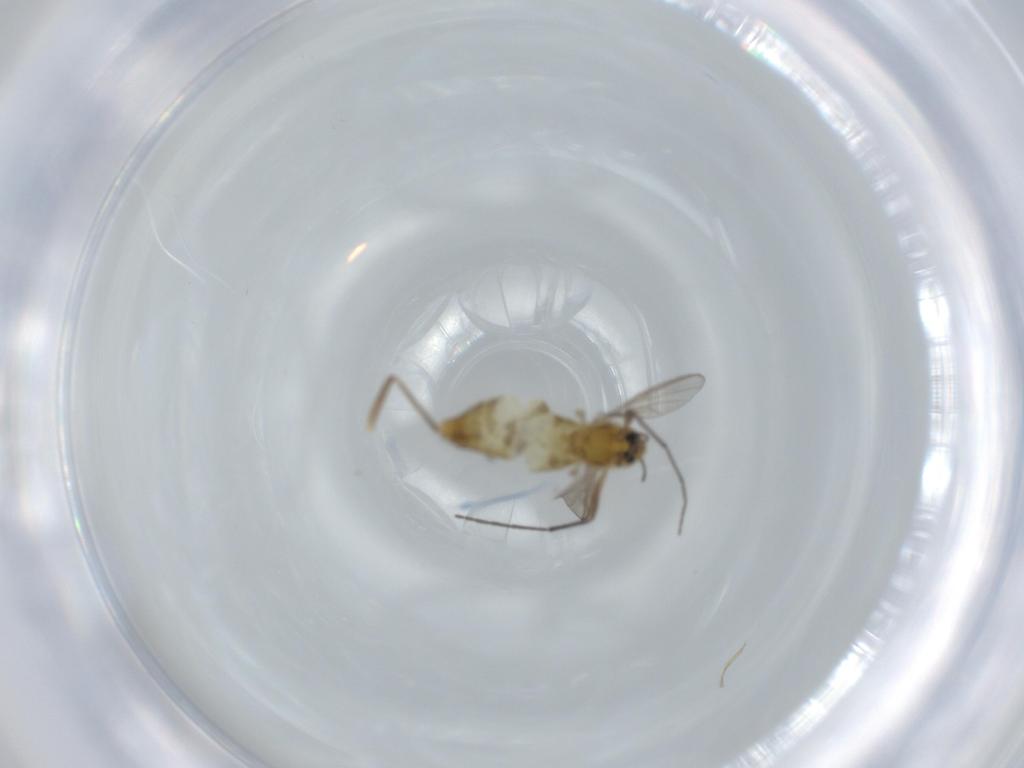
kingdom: Animalia
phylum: Arthropoda
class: Insecta
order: Diptera
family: Chironomidae
